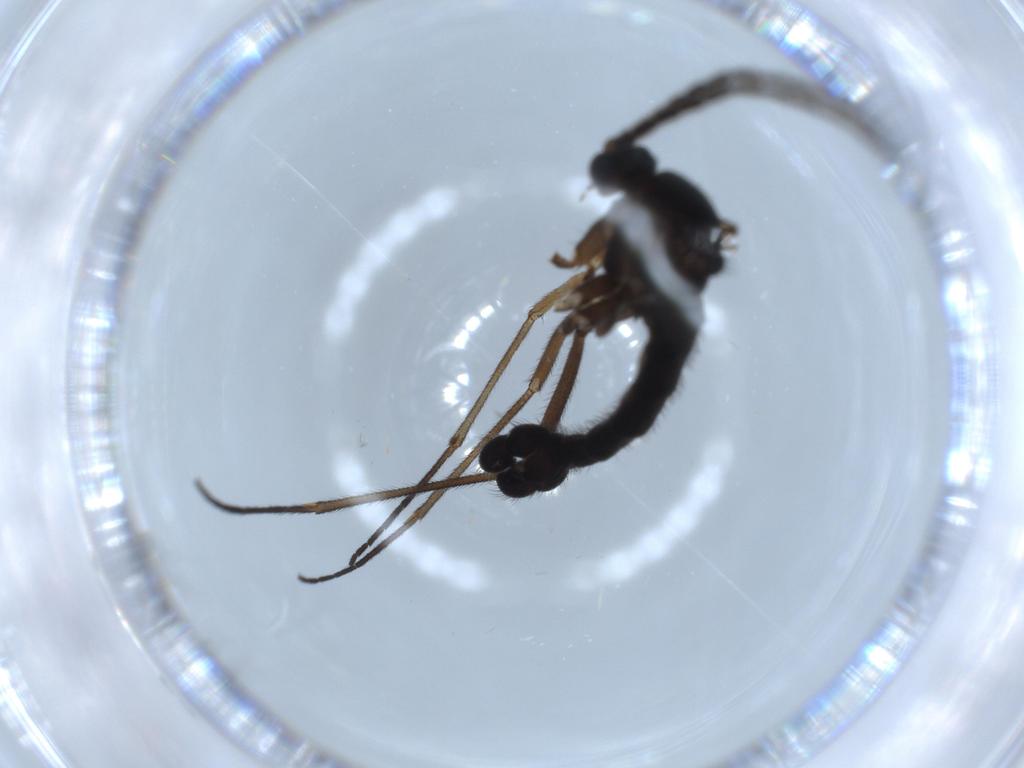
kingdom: Animalia
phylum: Arthropoda
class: Insecta
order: Diptera
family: Sciaridae
